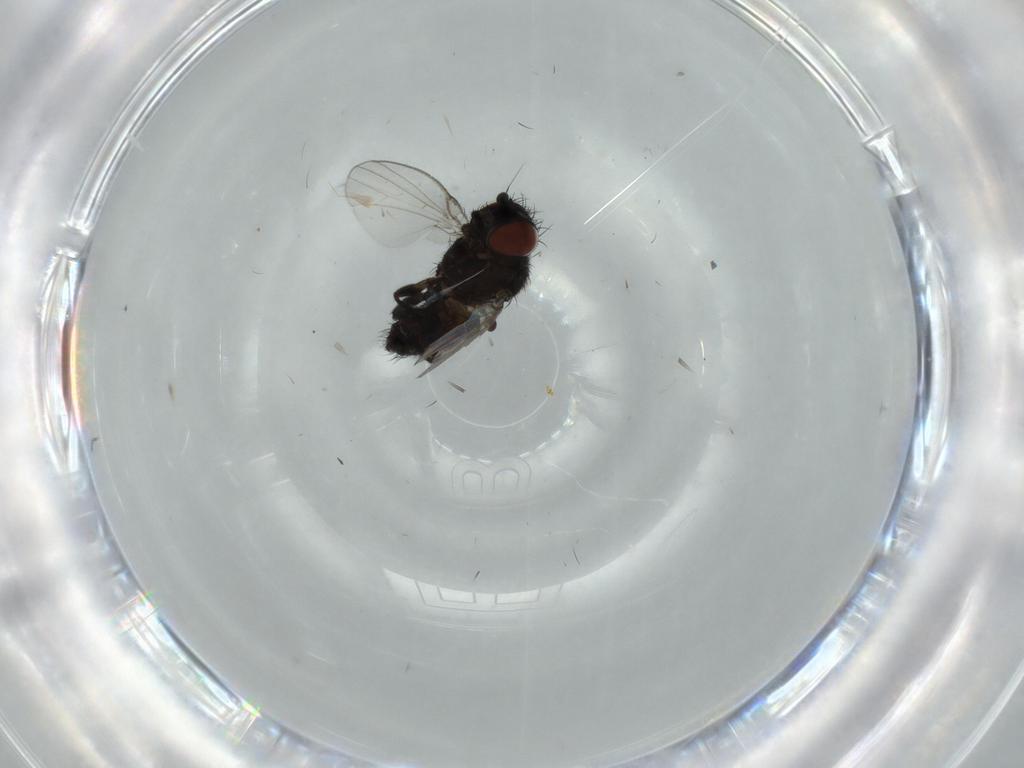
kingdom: Animalia
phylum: Arthropoda
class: Insecta
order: Diptera
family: Milichiidae
